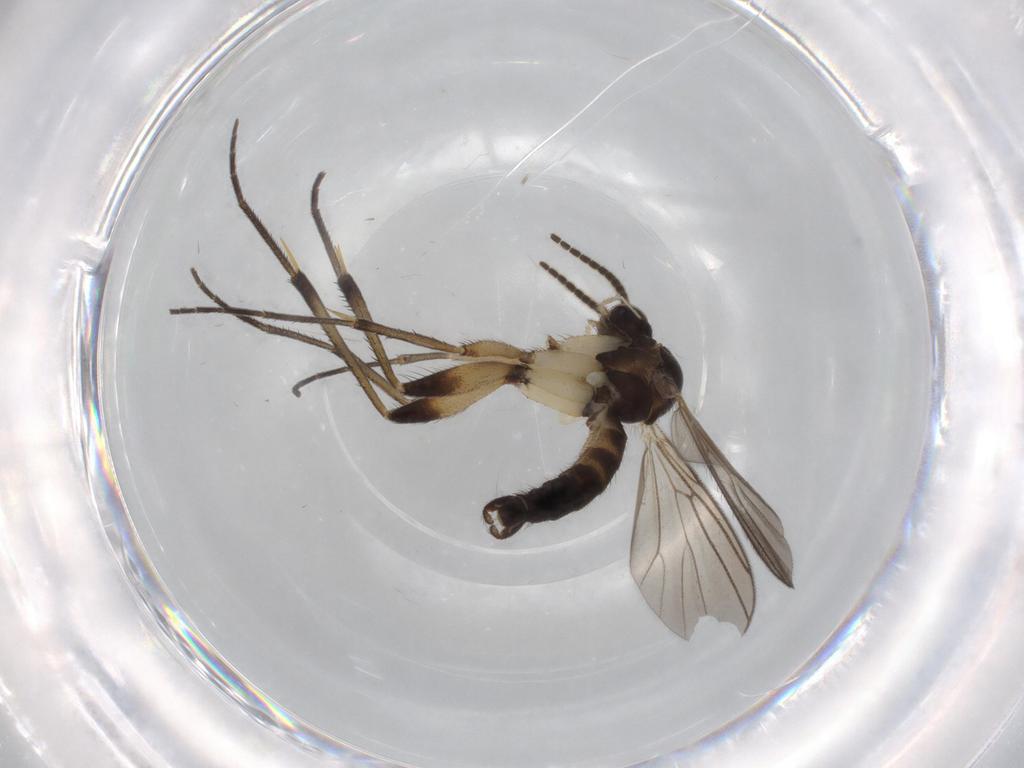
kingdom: Animalia
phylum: Arthropoda
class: Insecta
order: Diptera
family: Mycetophilidae
